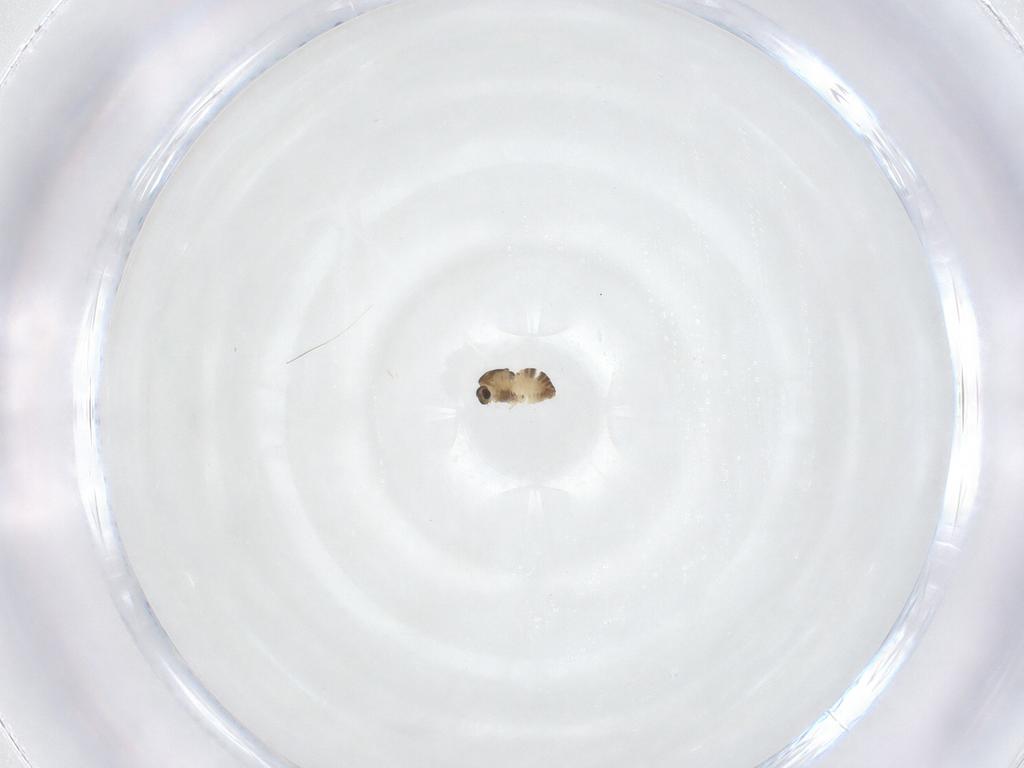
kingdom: Animalia
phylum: Arthropoda
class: Insecta
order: Diptera
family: Chironomidae
